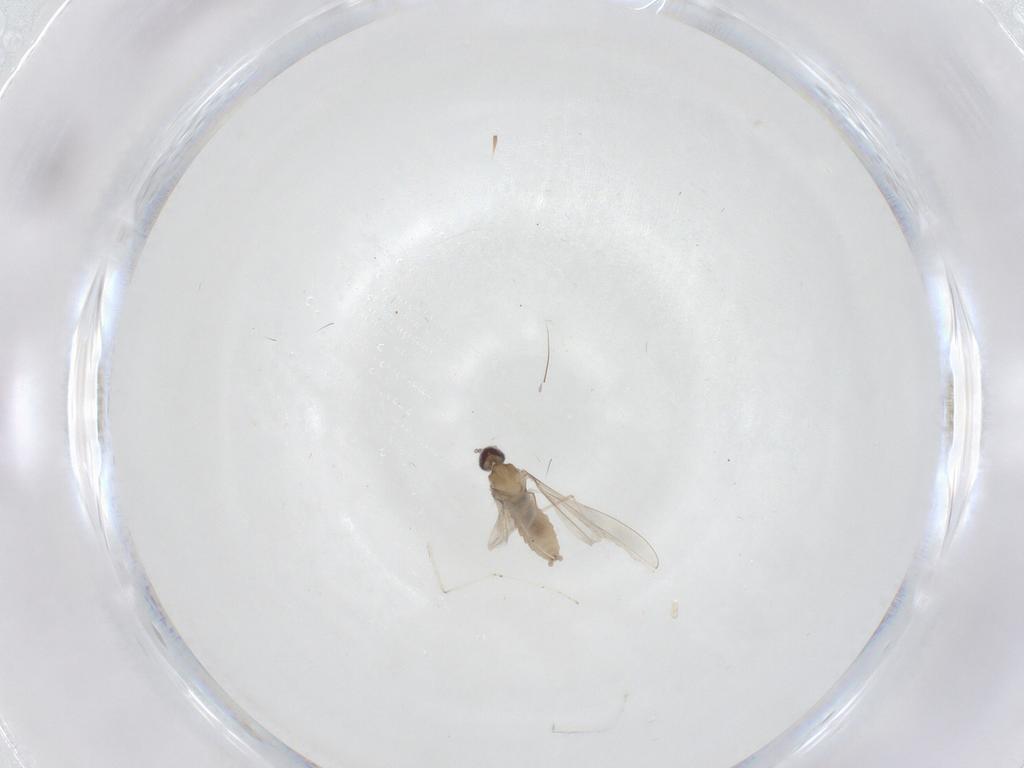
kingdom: Animalia
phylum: Arthropoda
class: Insecta
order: Diptera
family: Cecidomyiidae
